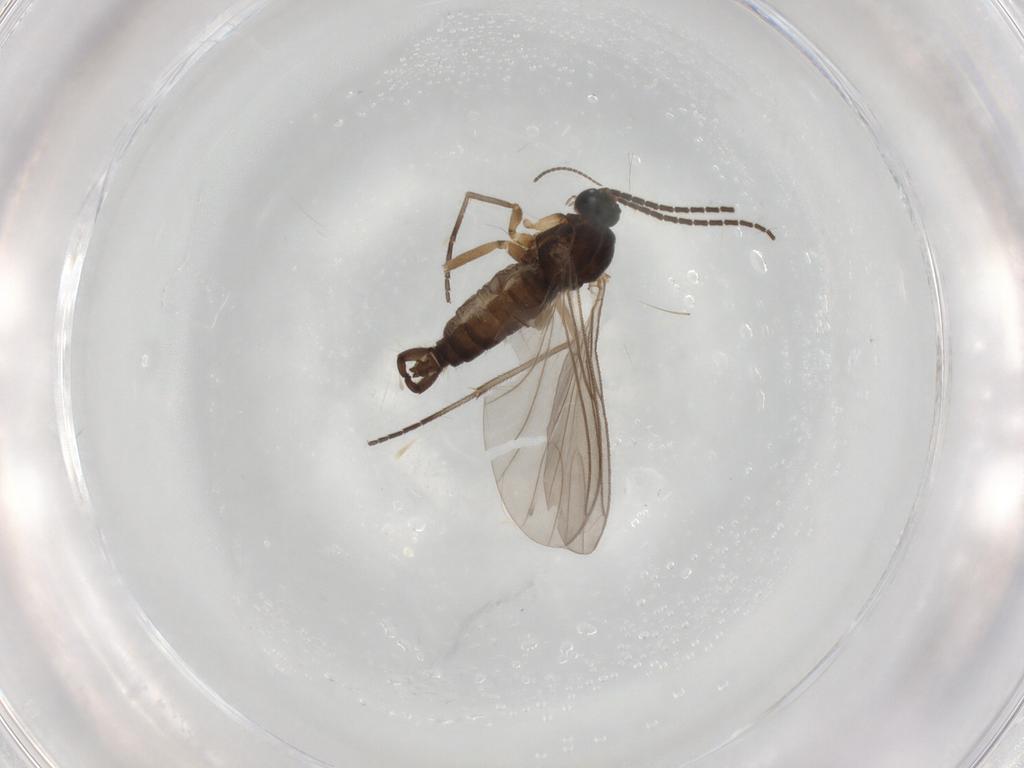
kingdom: Animalia
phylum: Arthropoda
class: Insecta
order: Diptera
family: Sciaridae
